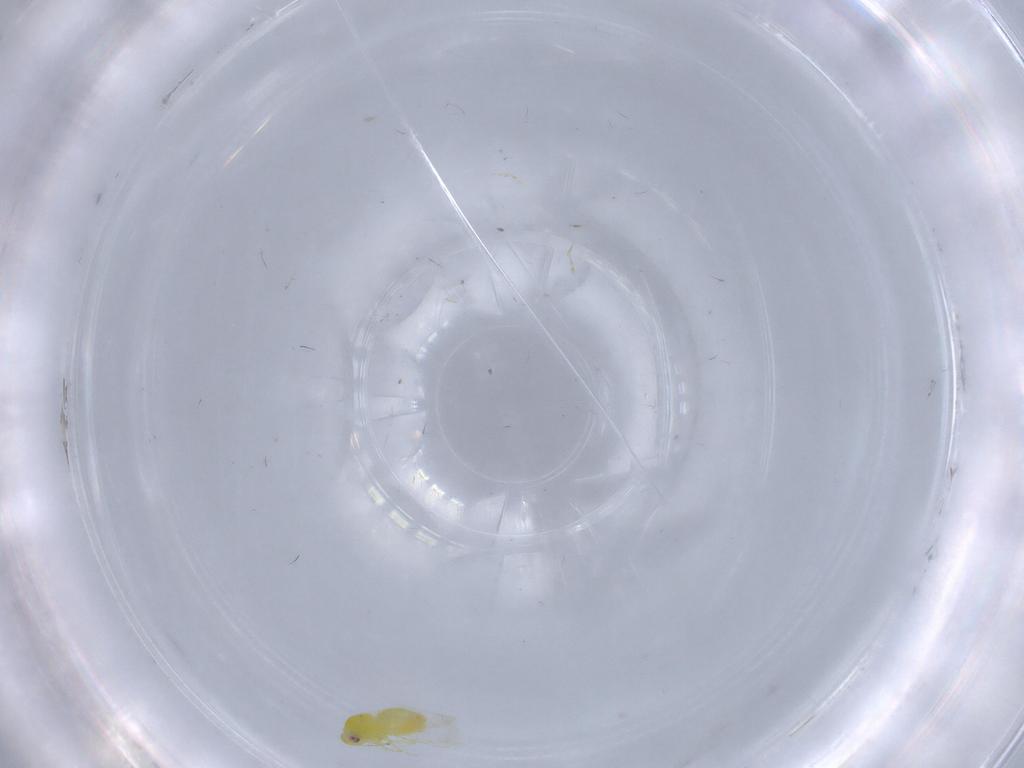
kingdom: Animalia
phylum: Arthropoda
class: Insecta
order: Hemiptera
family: Aleyrodidae
